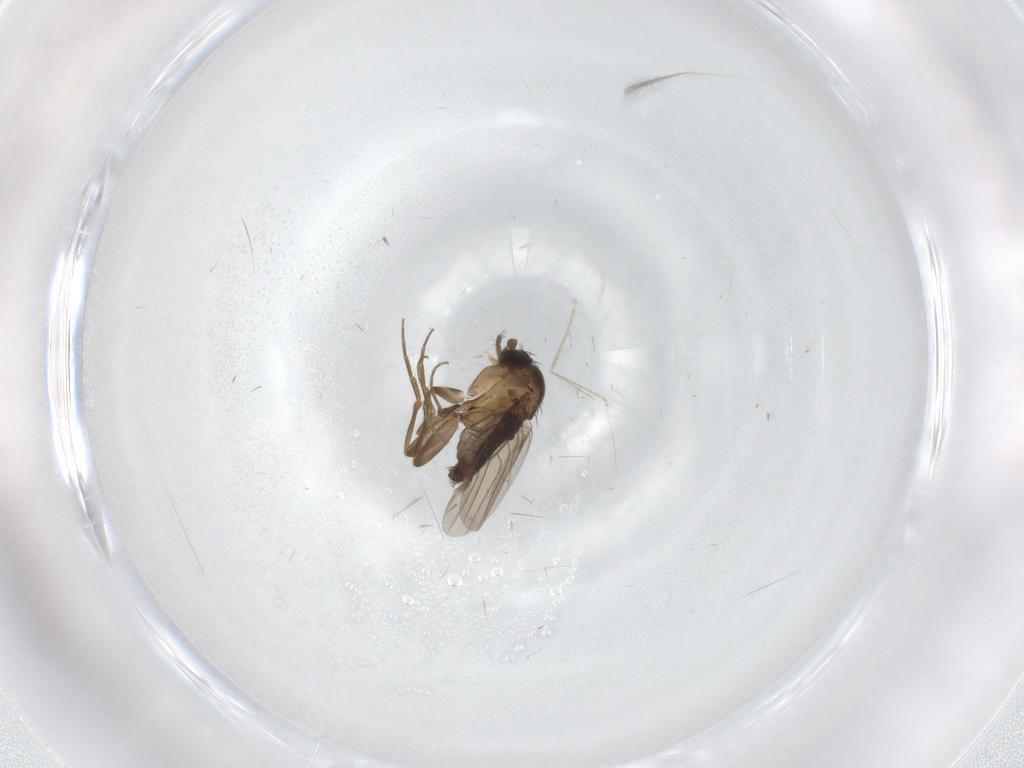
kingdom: Animalia
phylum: Arthropoda
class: Insecta
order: Diptera
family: Phoridae
